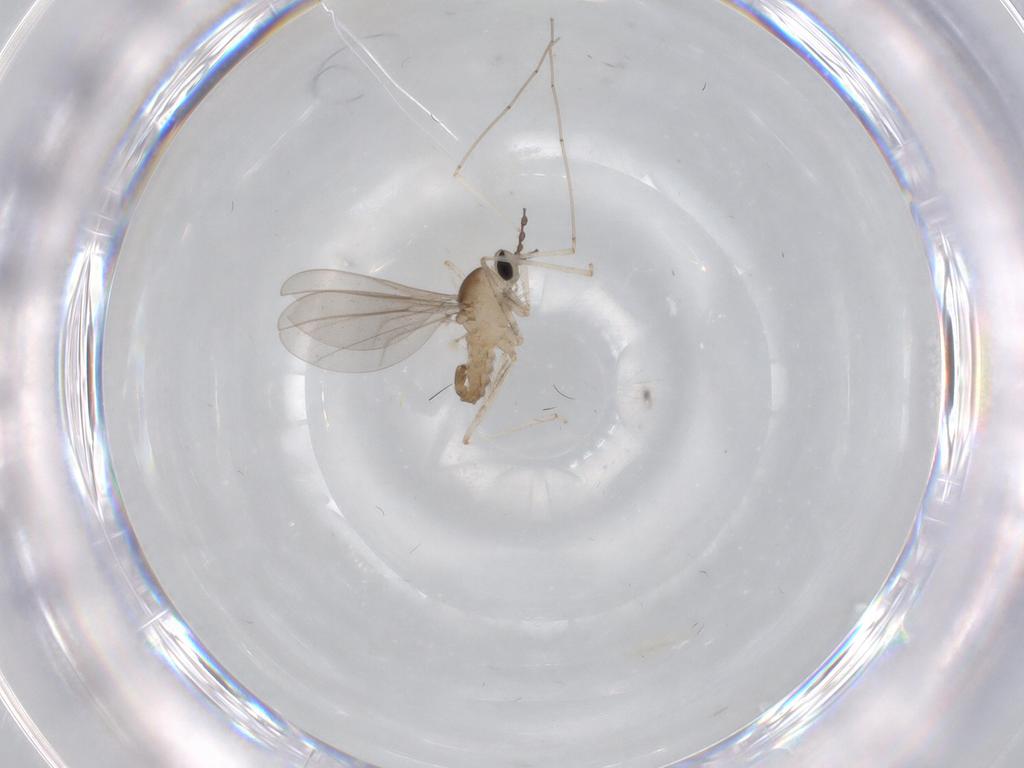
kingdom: Animalia
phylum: Arthropoda
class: Insecta
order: Diptera
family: Cecidomyiidae
